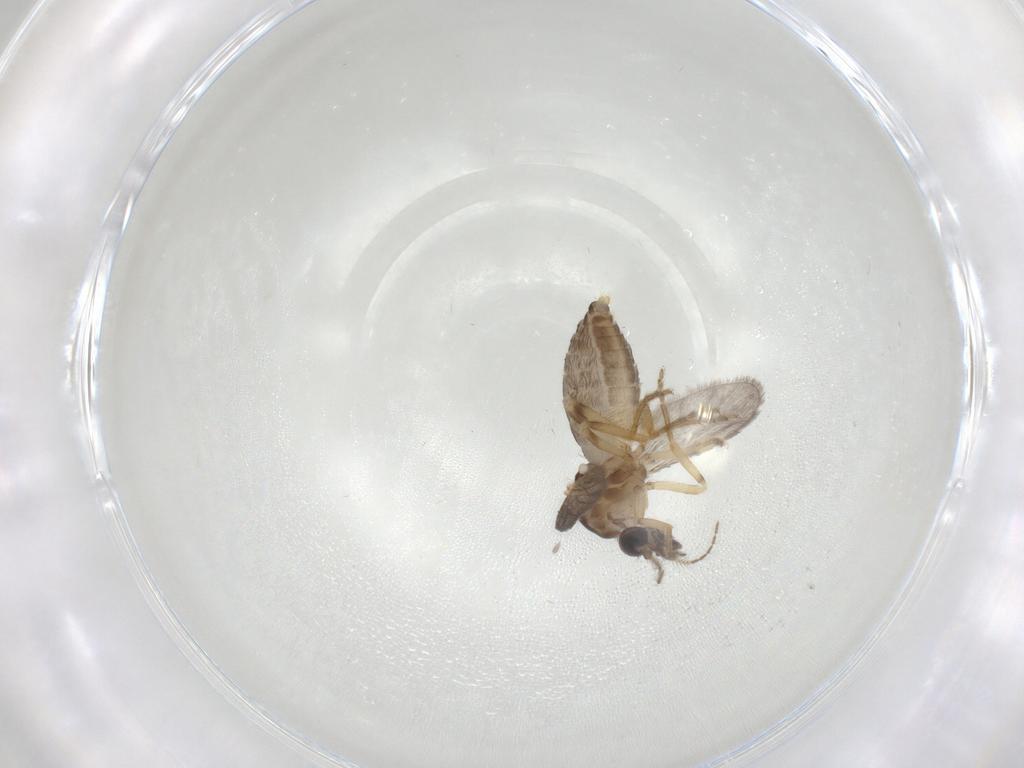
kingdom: Animalia
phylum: Arthropoda
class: Insecta
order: Diptera
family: Ceratopogonidae
